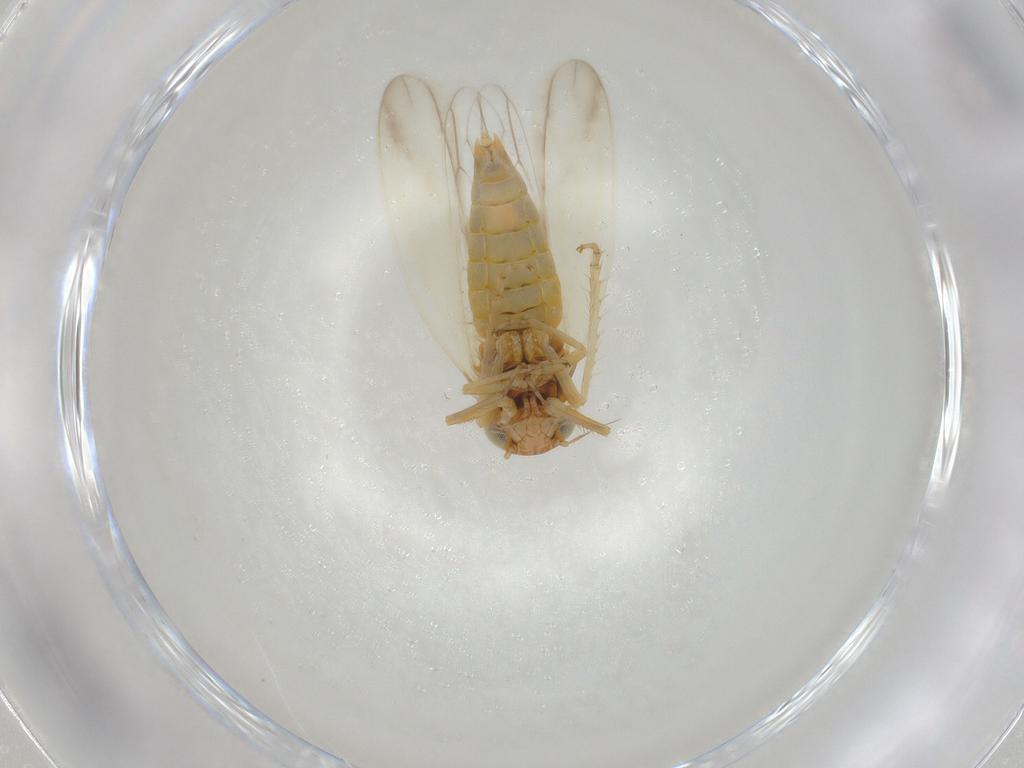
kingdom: Animalia
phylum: Arthropoda
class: Insecta
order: Hemiptera
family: Cicadellidae
